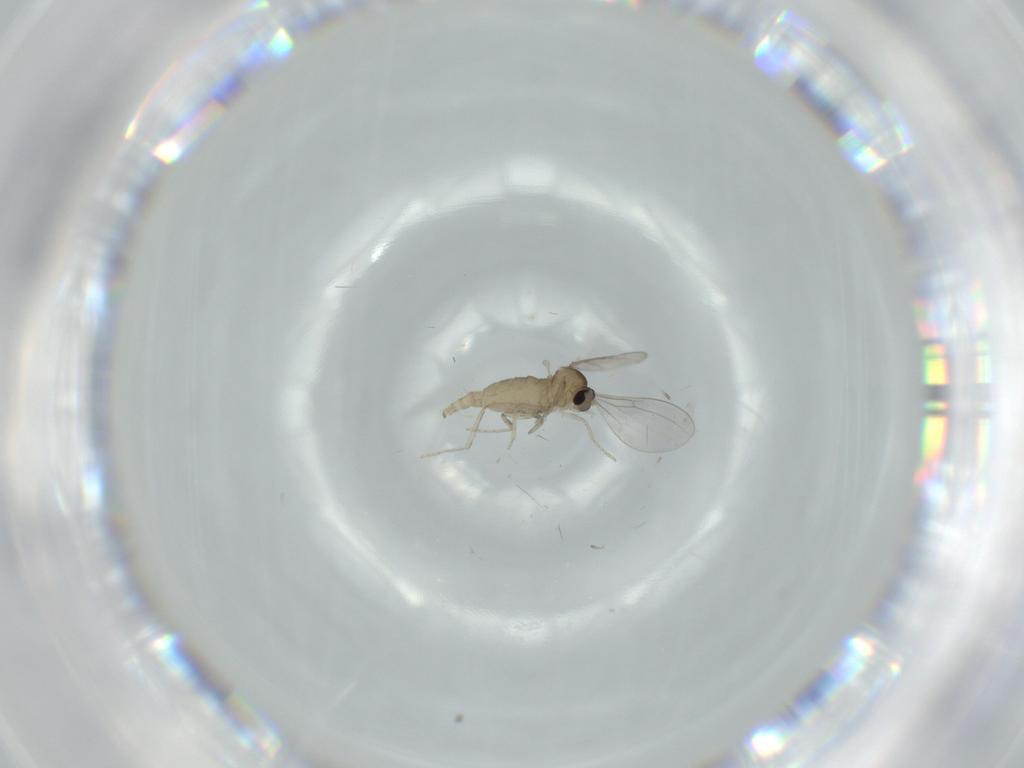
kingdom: Animalia
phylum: Arthropoda
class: Insecta
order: Diptera
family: Cecidomyiidae
